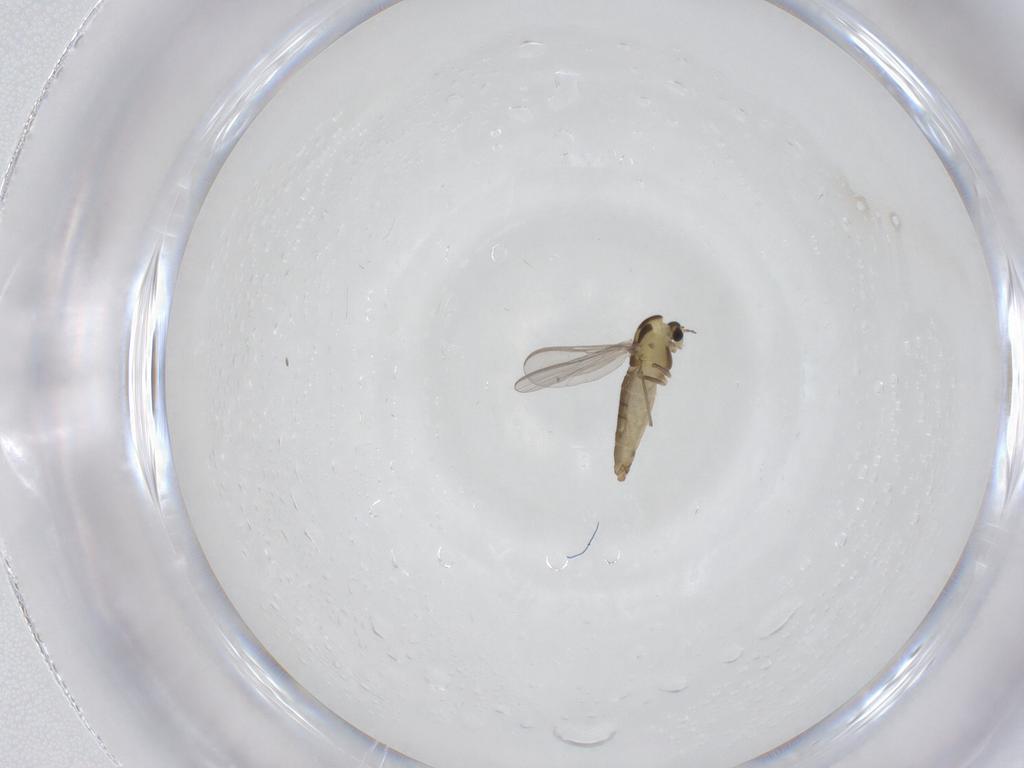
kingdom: Animalia
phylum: Arthropoda
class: Insecta
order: Diptera
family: Chironomidae
